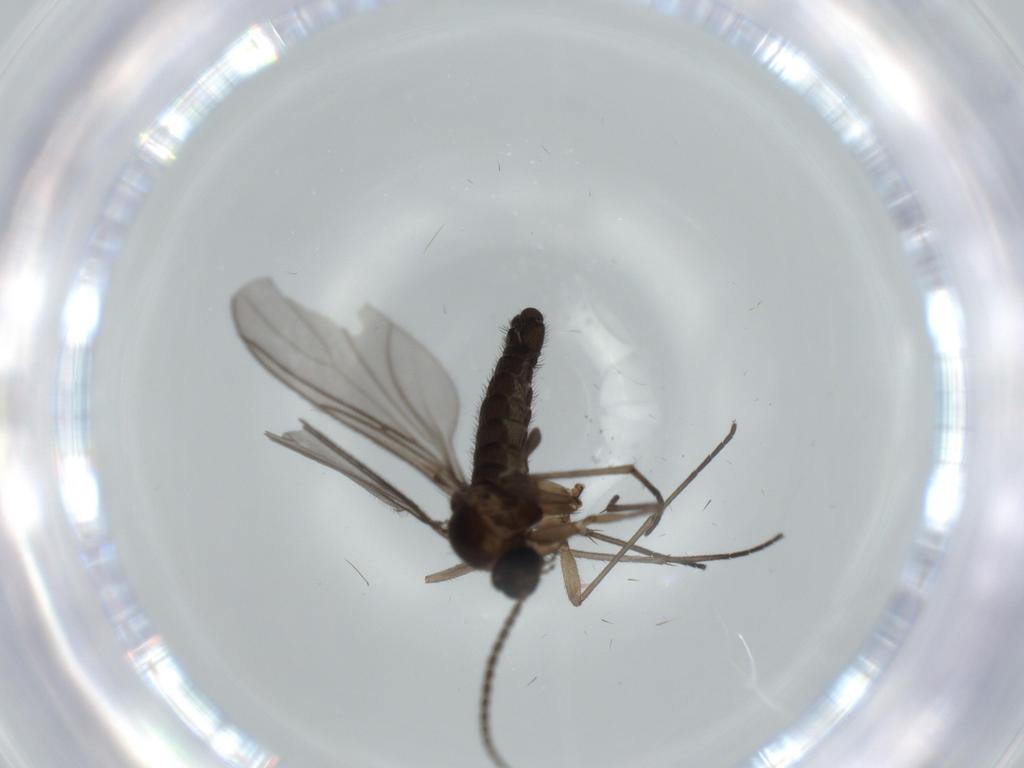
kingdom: Animalia
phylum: Arthropoda
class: Insecta
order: Diptera
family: Sciaridae
